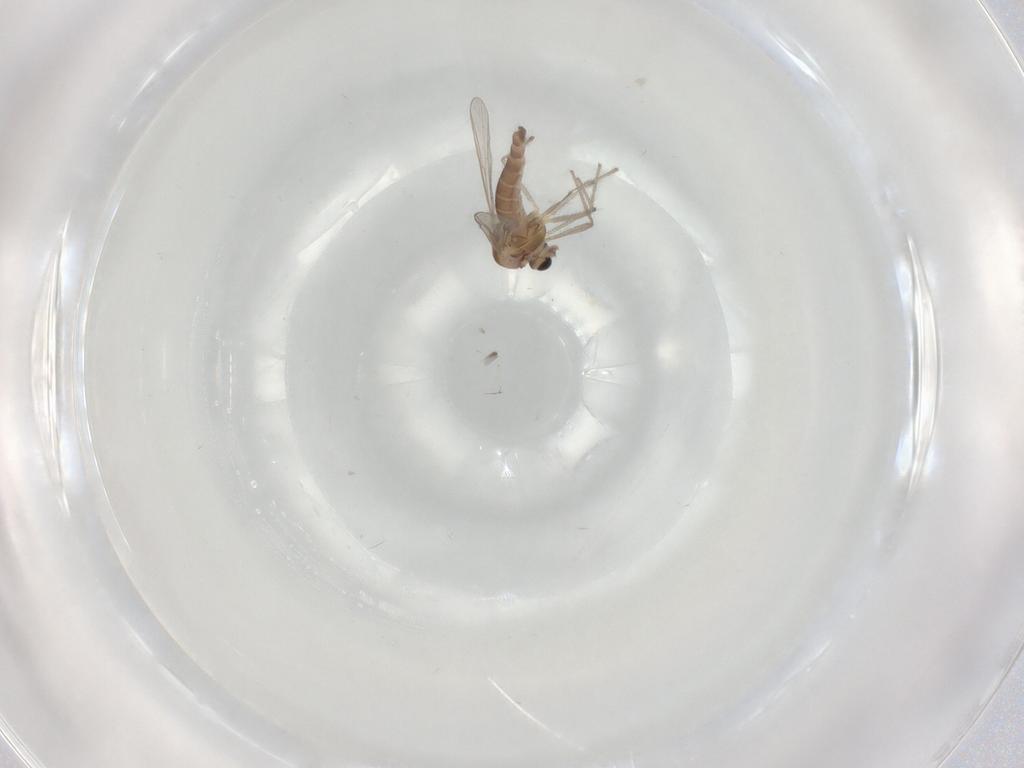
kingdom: Animalia
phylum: Arthropoda
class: Insecta
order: Diptera
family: Chironomidae
